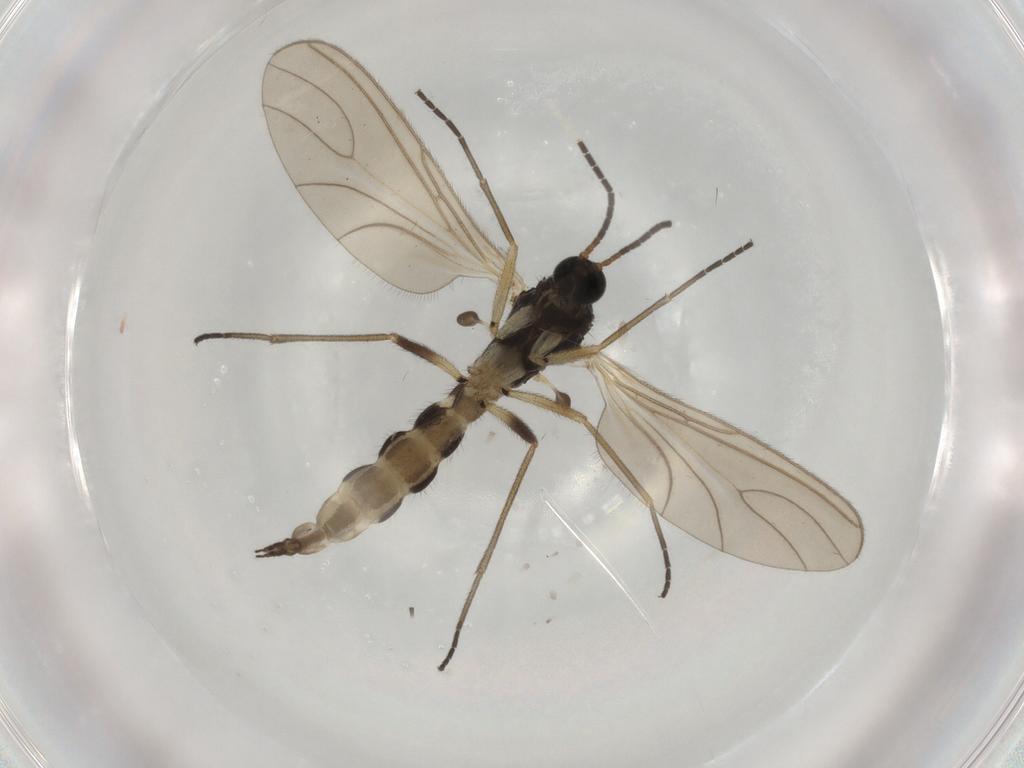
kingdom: Animalia
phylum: Arthropoda
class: Insecta
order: Diptera
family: Sciaridae
